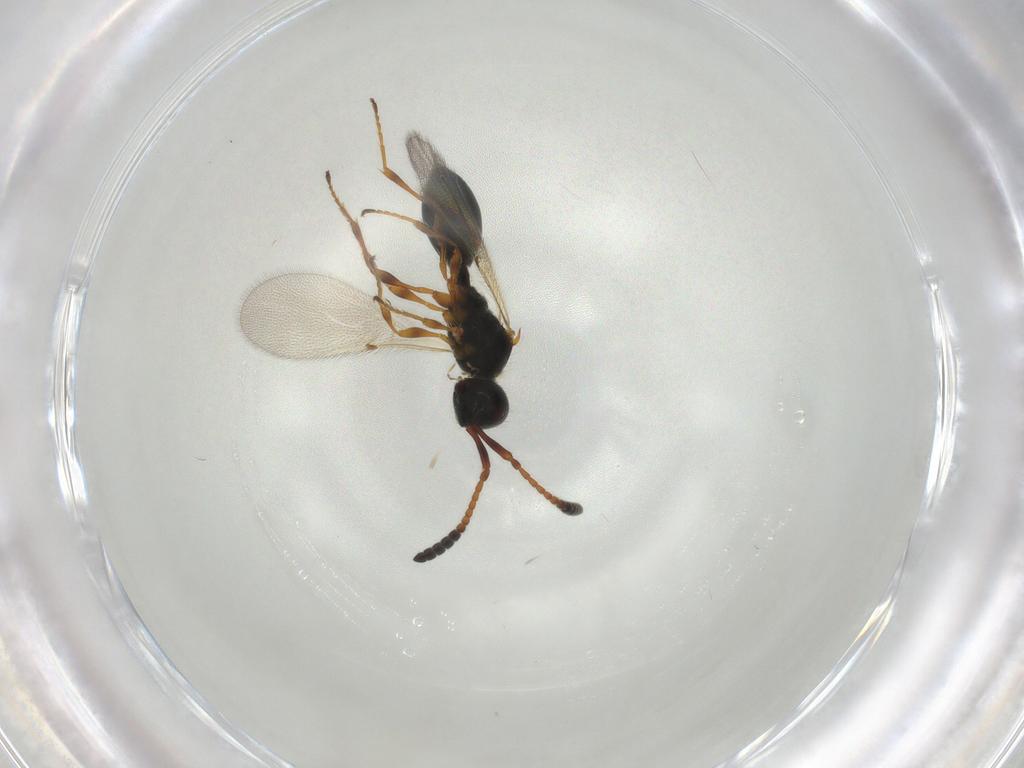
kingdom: Animalia
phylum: Arthropoda
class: Insecta
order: Hymenoptera
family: Diapriidae
